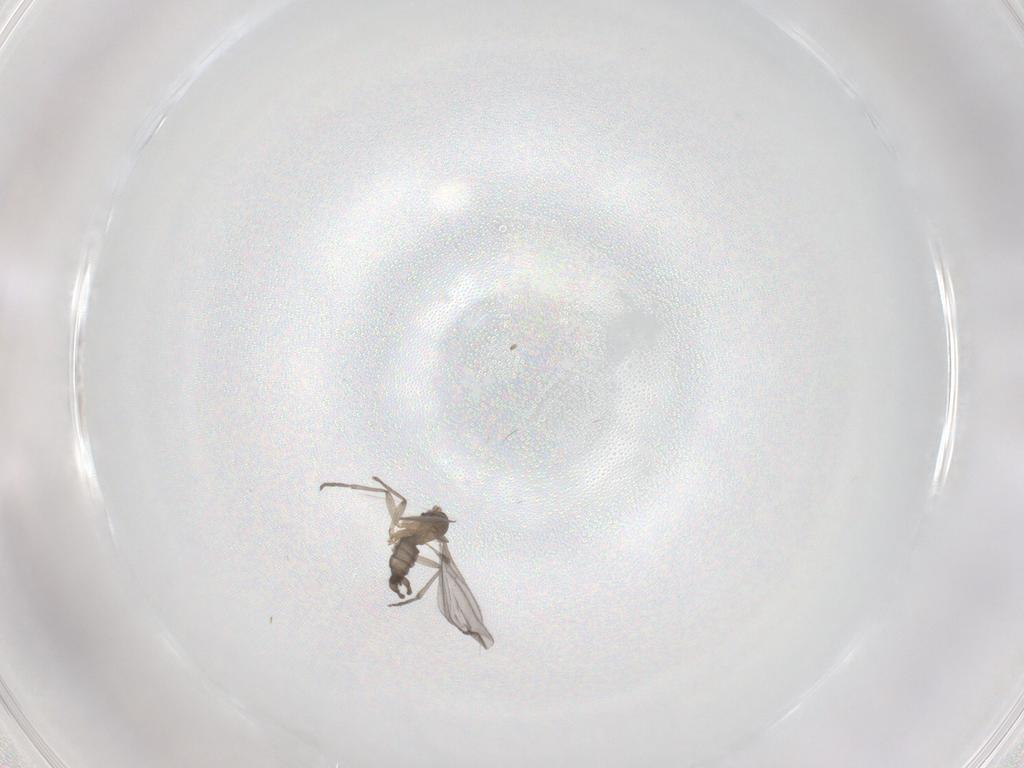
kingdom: Animalia
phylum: Arthropoda
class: Insecta
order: Diptera
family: Sciaridae
